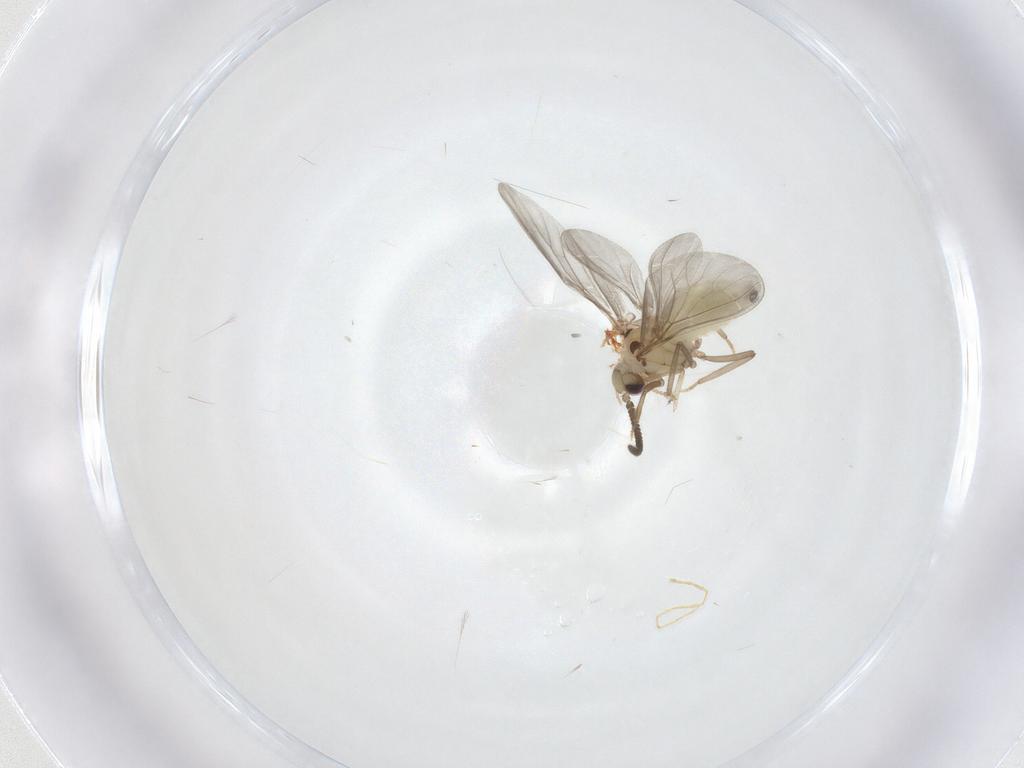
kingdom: Animalia
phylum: Arthropoda
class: Insecta
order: Neuroptera
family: Coniopterygidae
